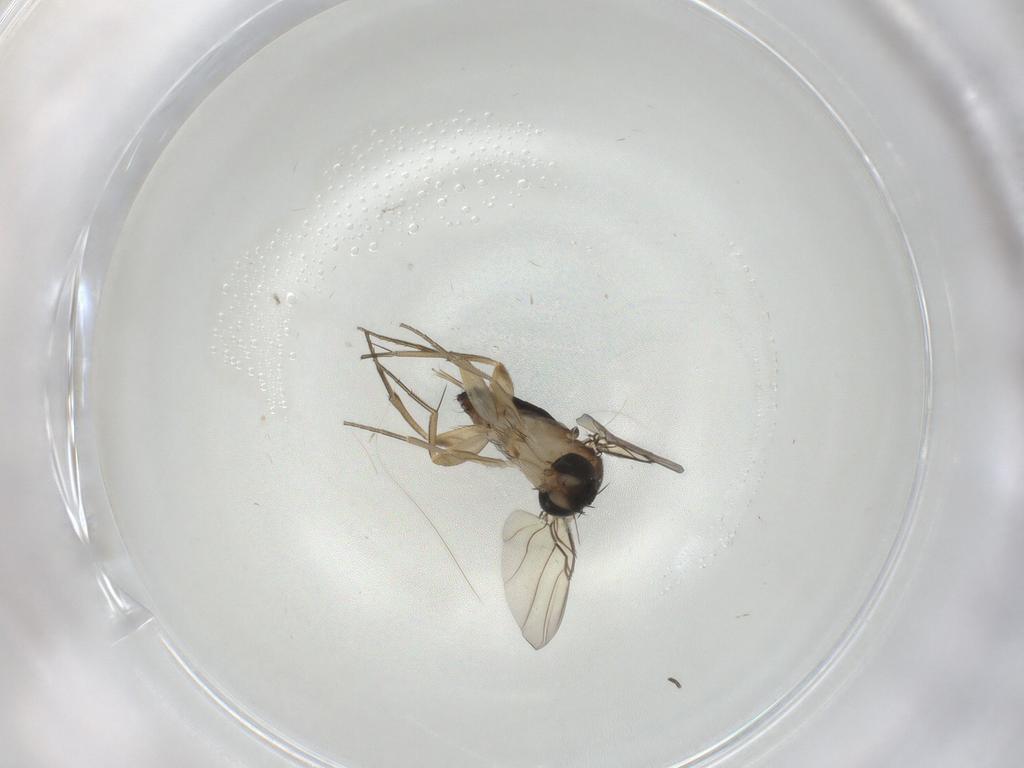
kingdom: Animalia
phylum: Arthropoda
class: Insecta
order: Diptera
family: Phoridae
